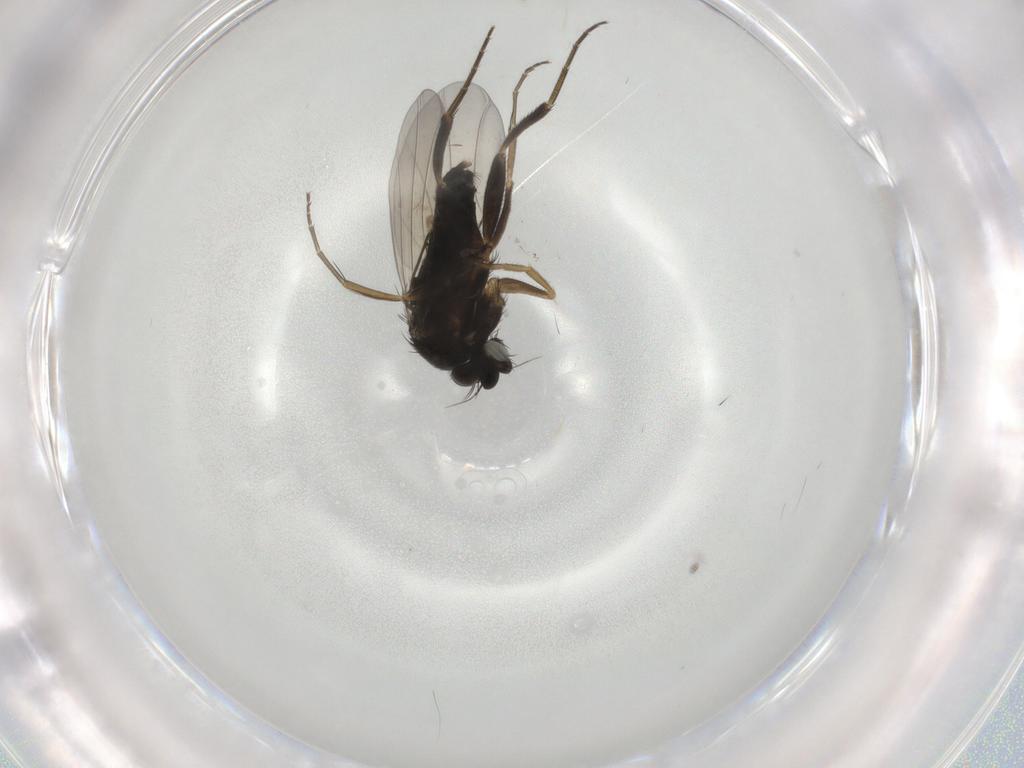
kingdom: Animalia
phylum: Arthropoda
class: Insecta
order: Diptera
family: Phoridae
